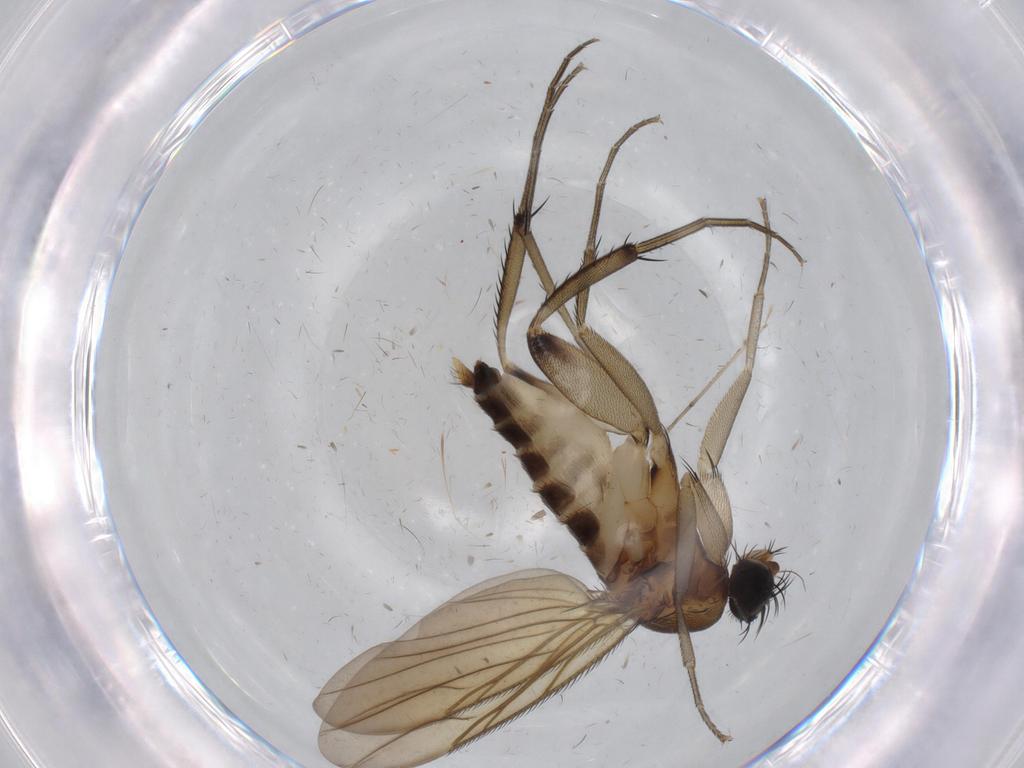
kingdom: Animalia
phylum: Arthropoda
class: Insecta
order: Diptera
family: Phoridae
